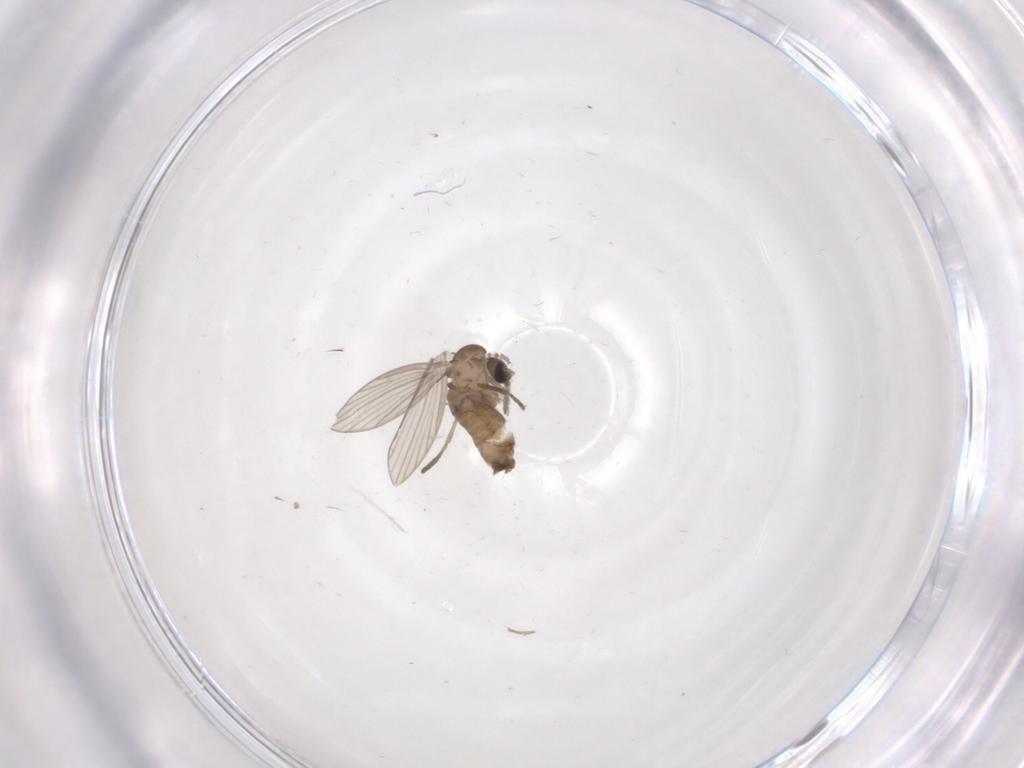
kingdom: Animalia
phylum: Arthropoda
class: Insecta
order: Diptera
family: Psychodidae
